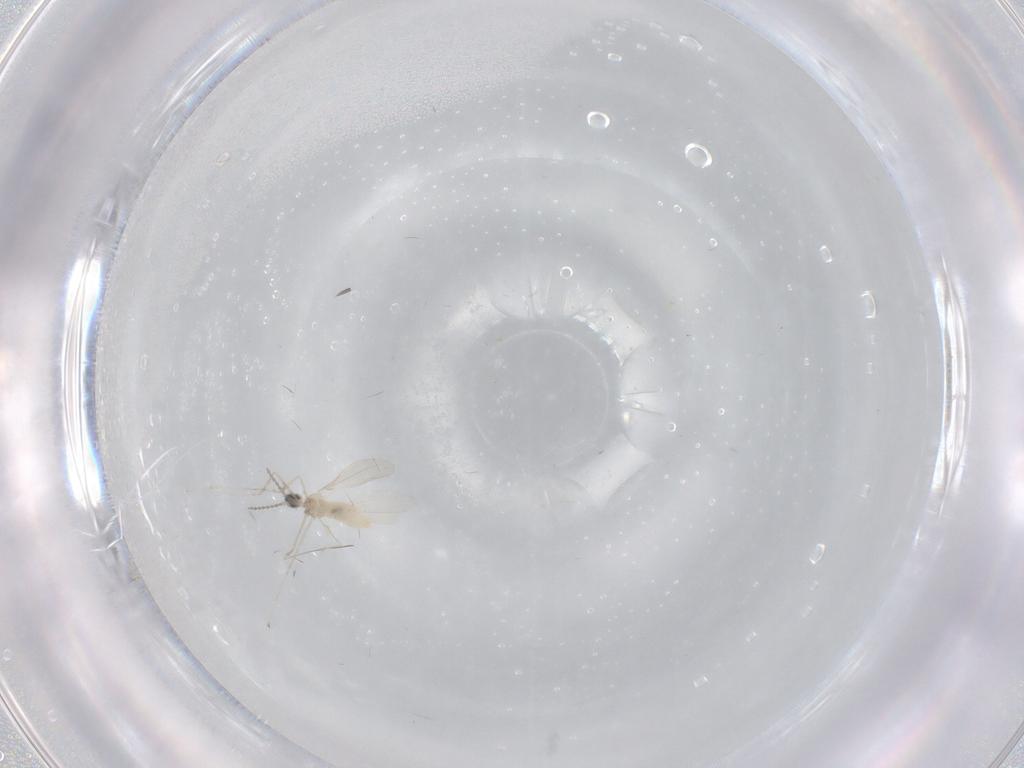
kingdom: Animalia
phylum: Arthropoda
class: Insecta
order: Diptera
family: Cecidomyiidae
